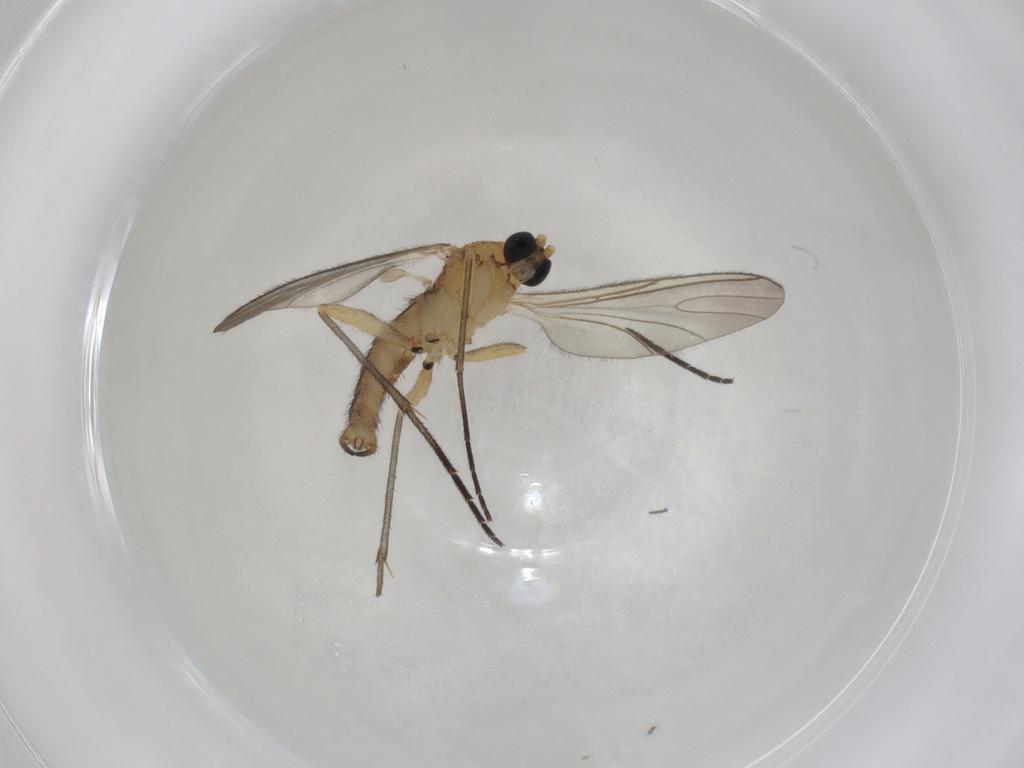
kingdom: Animalia
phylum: Arthropoda
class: Insecta
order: Diptera
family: Sciaridae
